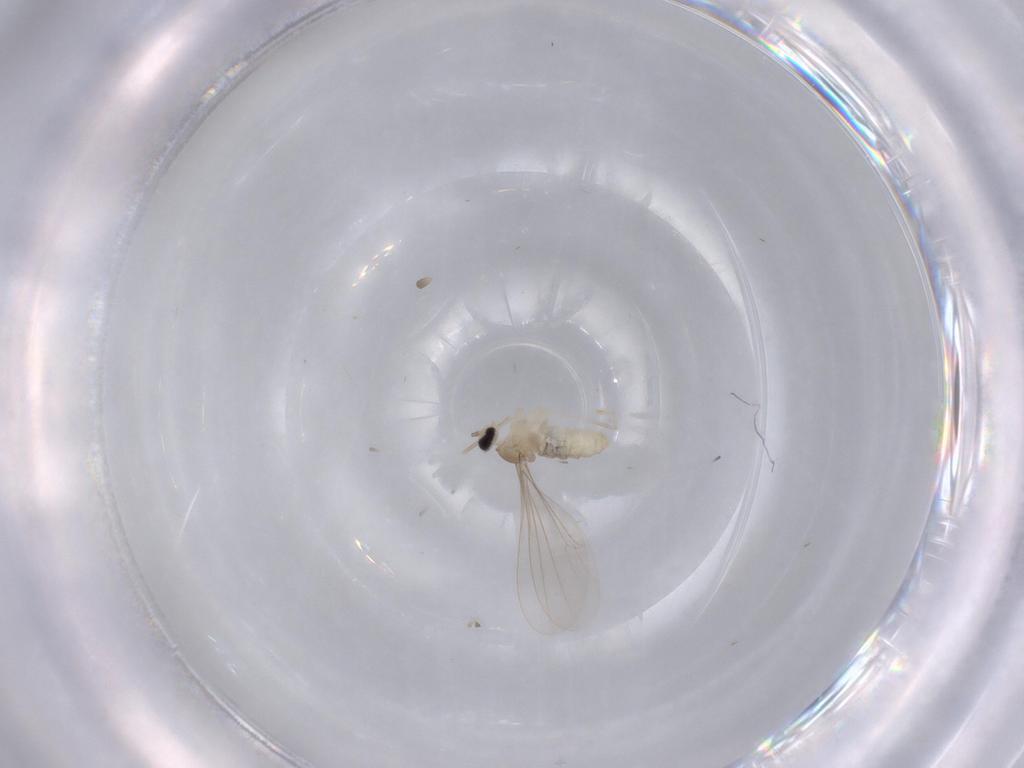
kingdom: Animalia
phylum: Arthropoda
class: Insecta
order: Diptera
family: Cecidomyiidae
